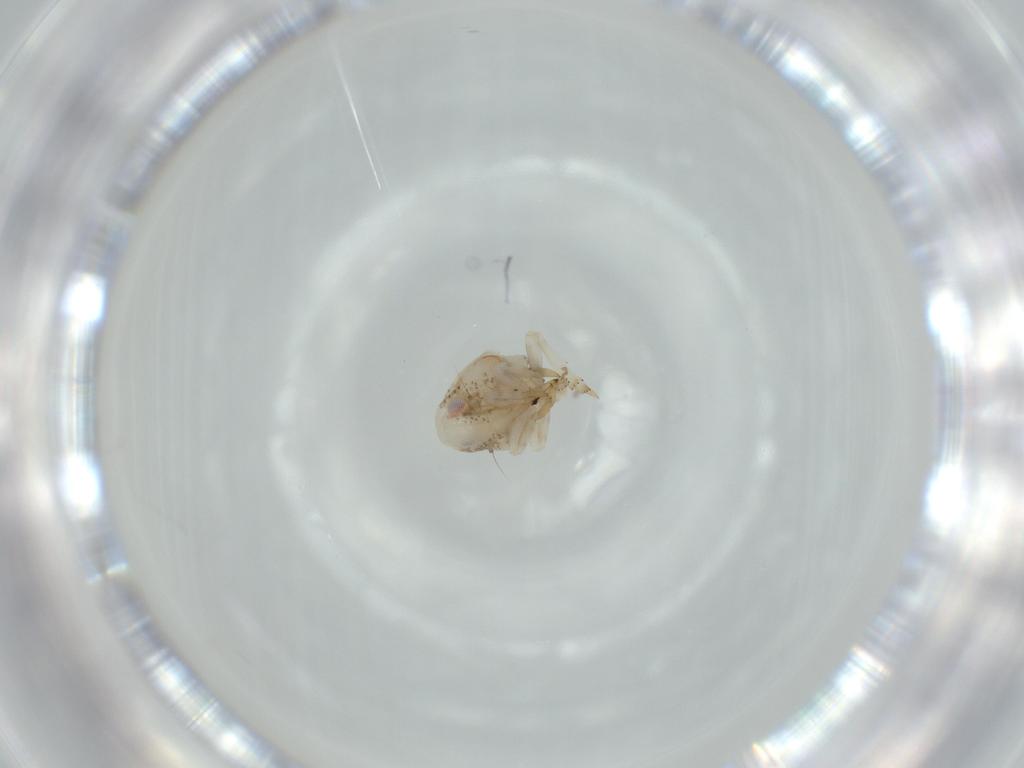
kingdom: Animalia
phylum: Arthropoda
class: Insecta
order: Hemiptera
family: Acanaloniidae
